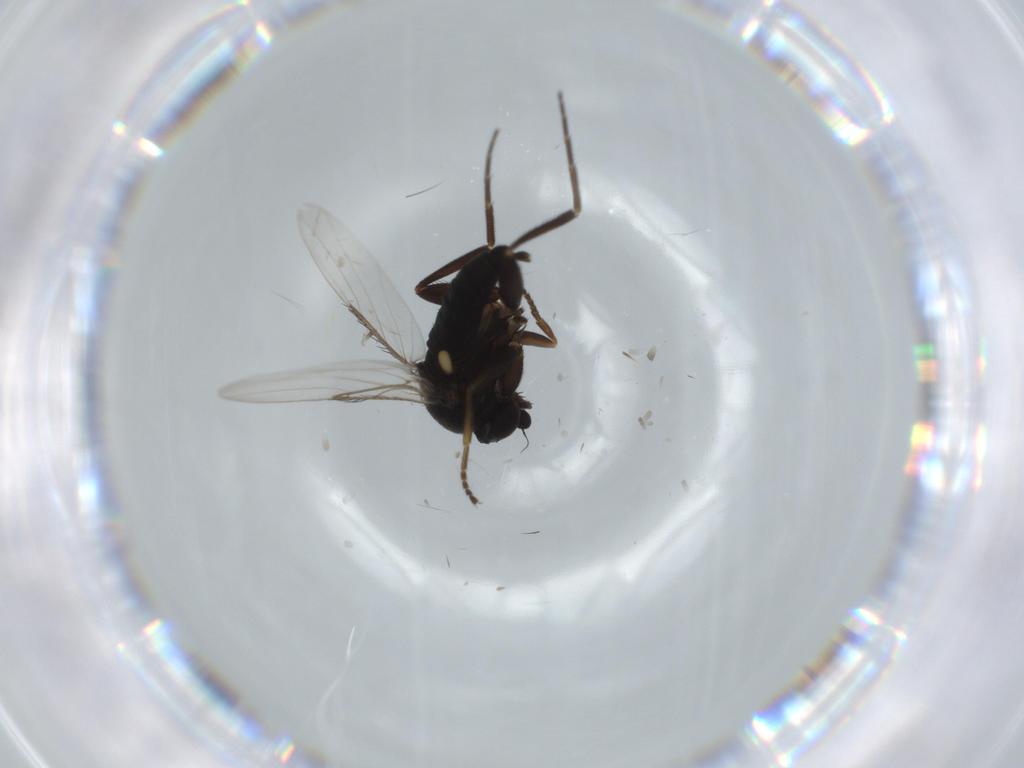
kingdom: Animalia
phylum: Arthropoda
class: Insecta
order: Diptera
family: Phoridae
